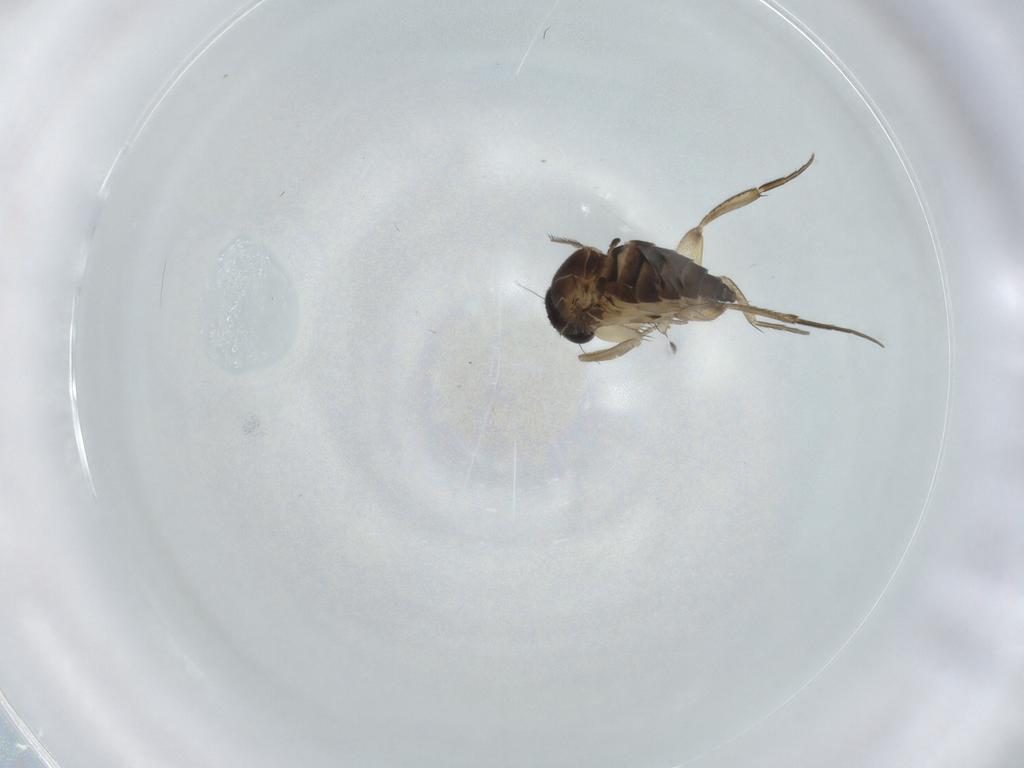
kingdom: Animalia
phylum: Arthropoda
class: Insecta
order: Diptera
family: Phoridae
